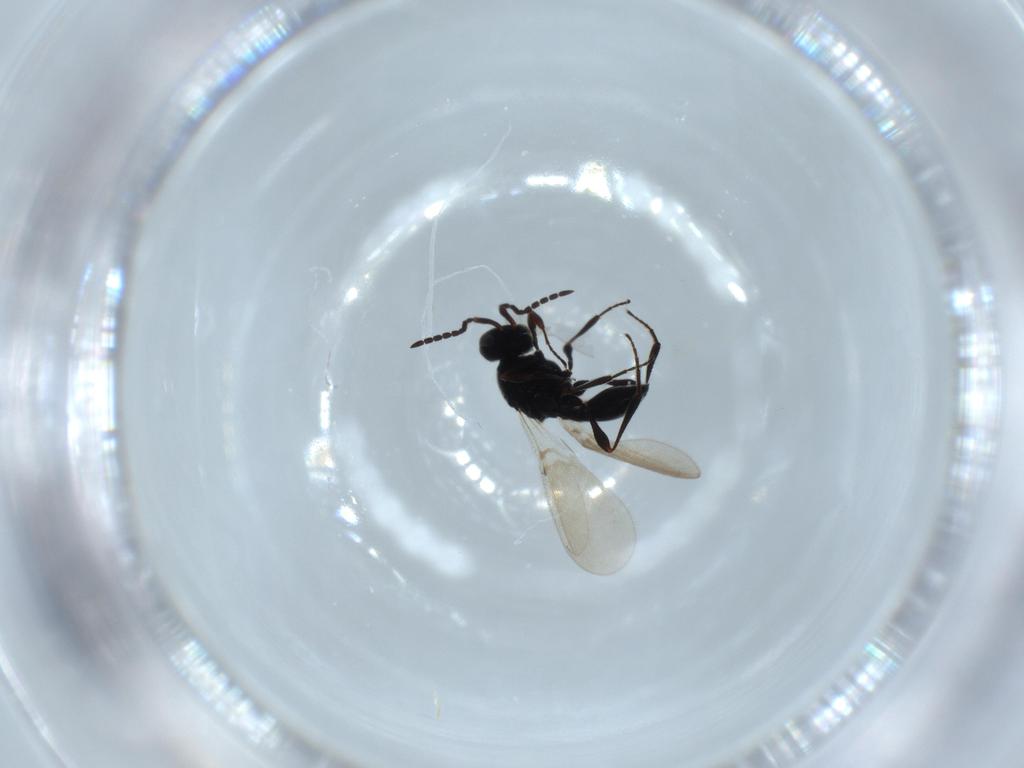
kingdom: Animalia
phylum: Arthropoda
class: Insecta
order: Hymenoptera
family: Platygastridae
